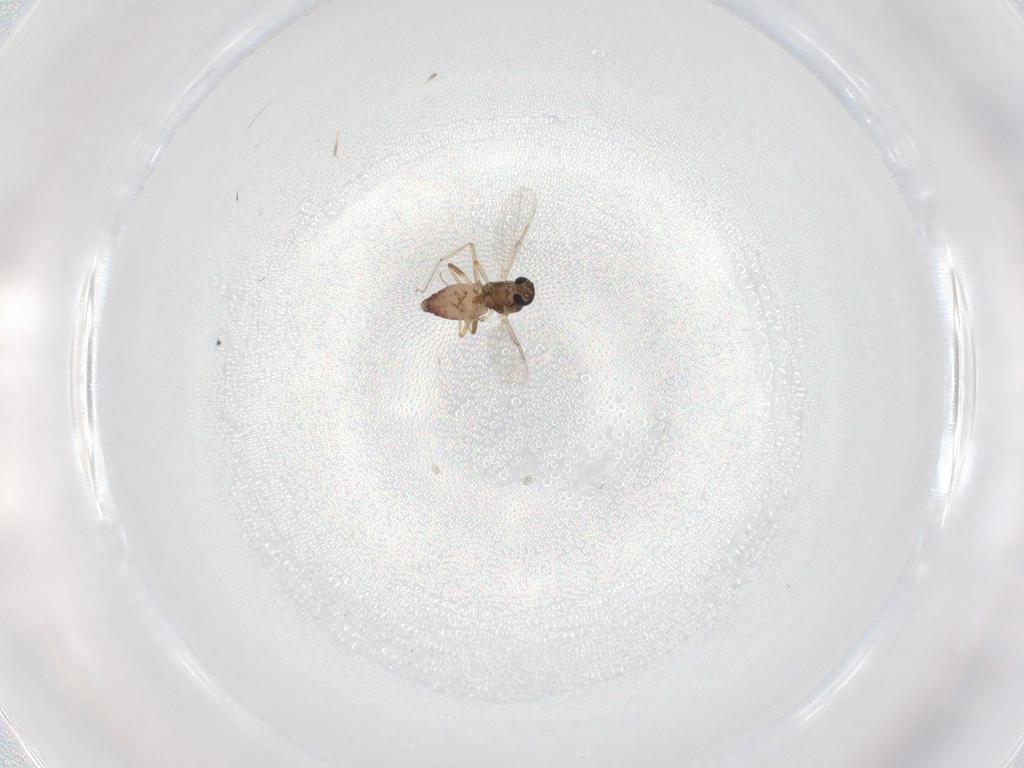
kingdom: Animalia
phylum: Arthropoda
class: Insecta
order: Diptera
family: Ceratopogonidae
